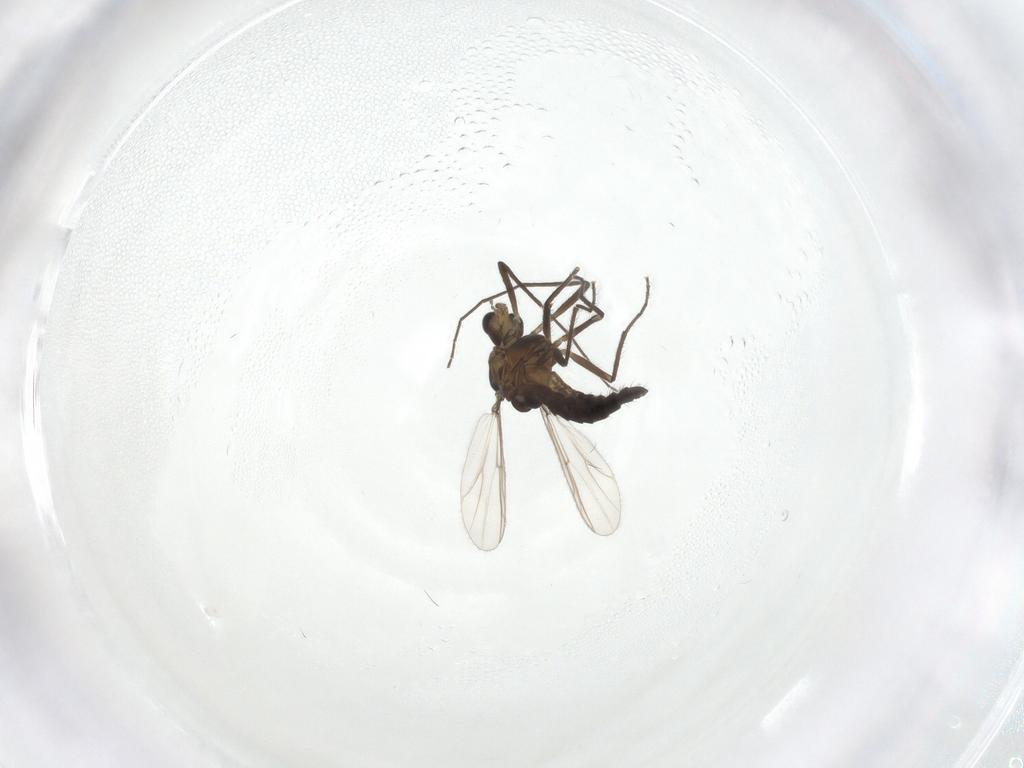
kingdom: Animalia
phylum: Arthropoda
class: Insecta
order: Diptera
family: Chironomidae
